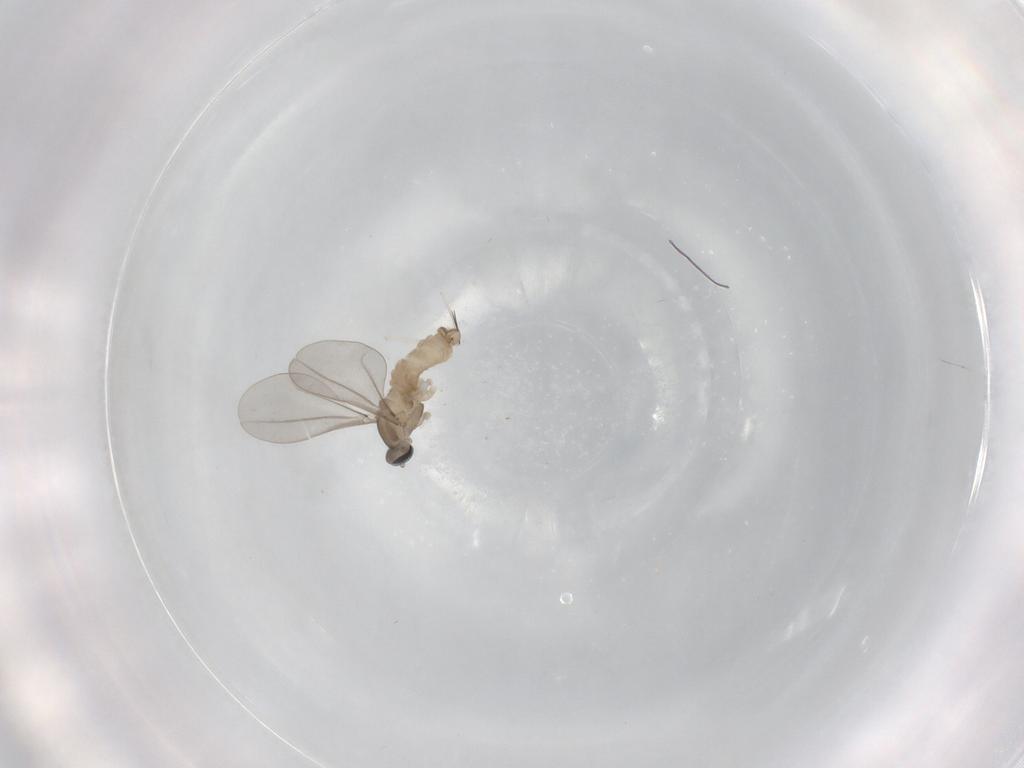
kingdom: Animalia
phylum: Arthropoda
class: Insecta
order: Diptera
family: Cecidomyiidae
